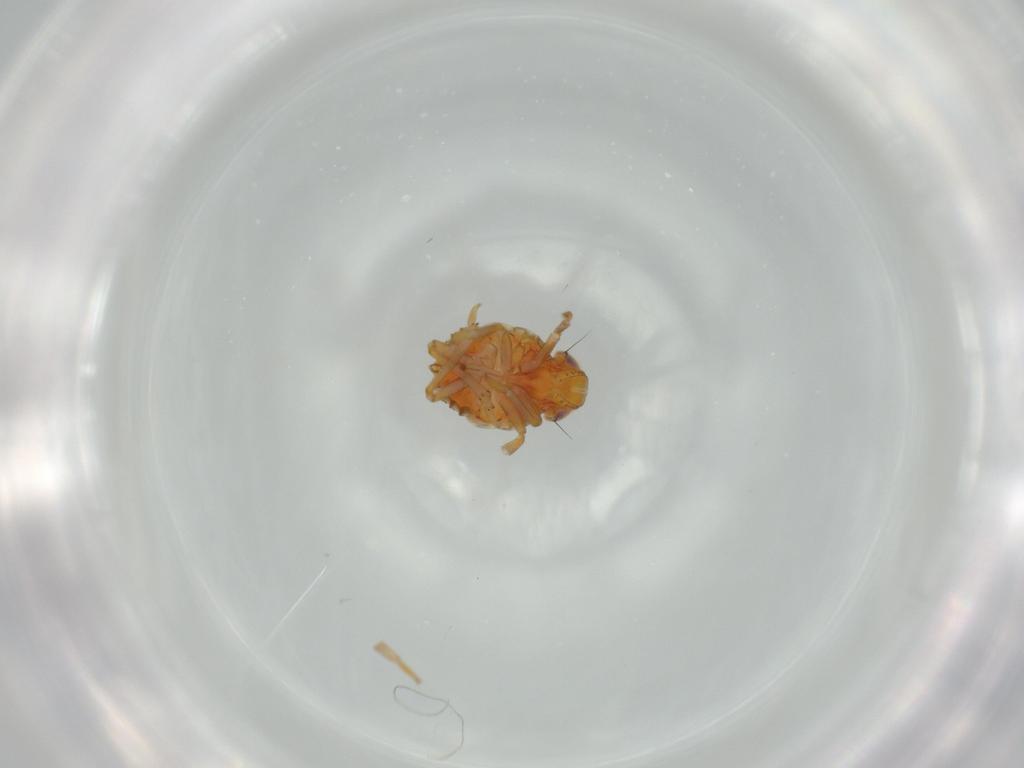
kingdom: Animalia
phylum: Arthropoda
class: Insecta
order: Hemiptera
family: Issidae
